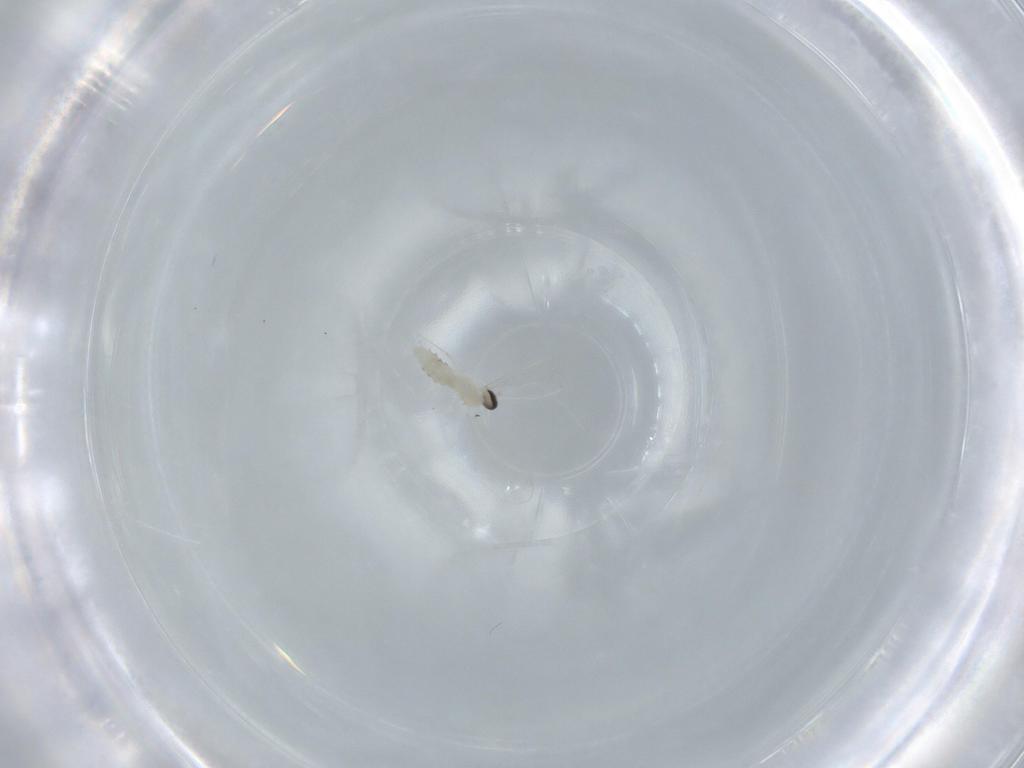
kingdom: Animalia
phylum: Arthropoda
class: Insecta
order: Diptera
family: Cecidomyiidae
